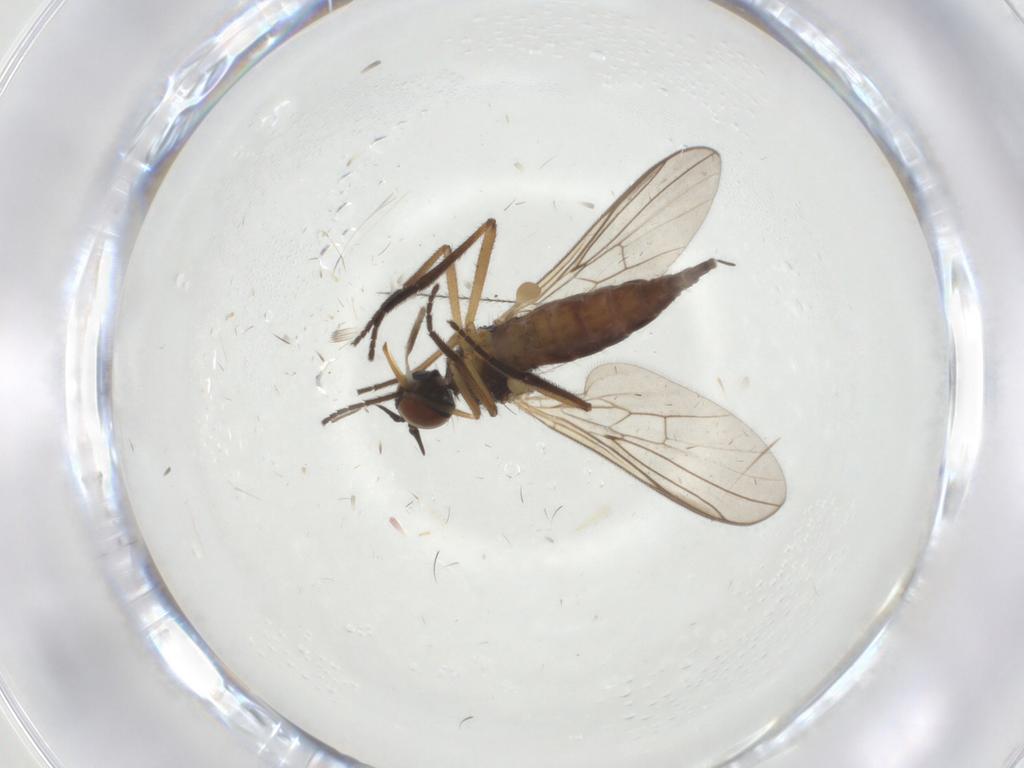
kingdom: Animalia
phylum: Arthropoda
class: Insecta
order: Diptera
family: Empididae
